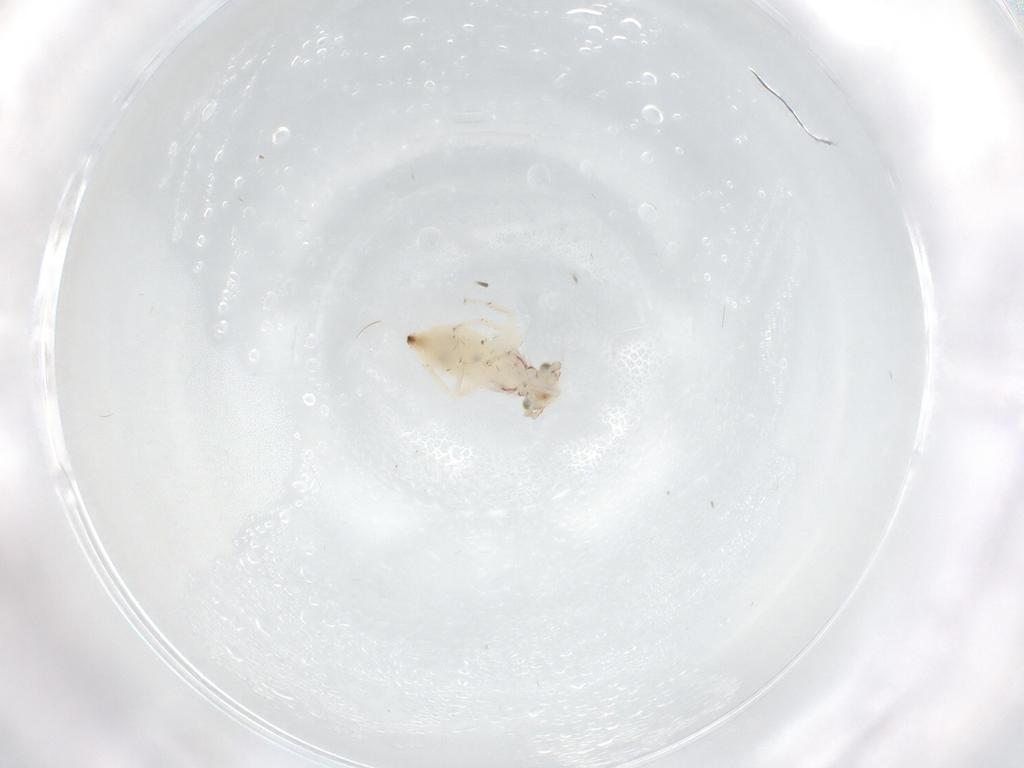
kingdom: Animalia
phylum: Arthropoda
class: Insecta
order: Psocodea
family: Lepidopsocidae
